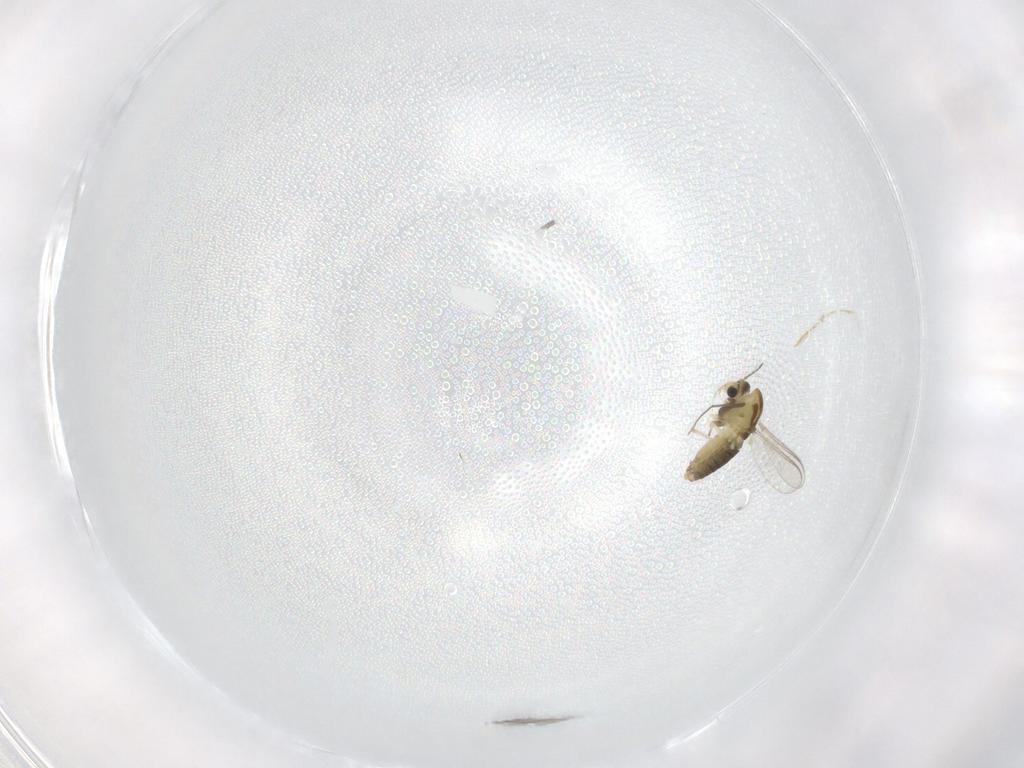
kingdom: Animalia
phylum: Arthropoda
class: Insecta
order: Diptera
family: Chironomidae
